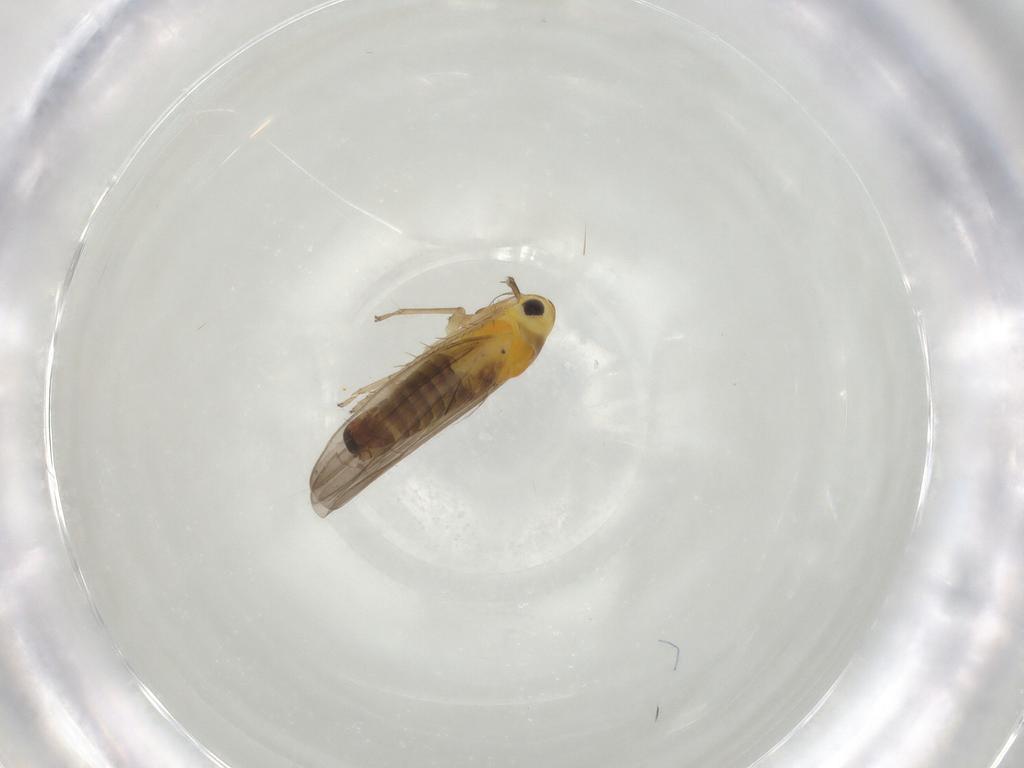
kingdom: Animalia
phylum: Arthropoda
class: Insecta
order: Hemiptera
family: Cicadellidae
